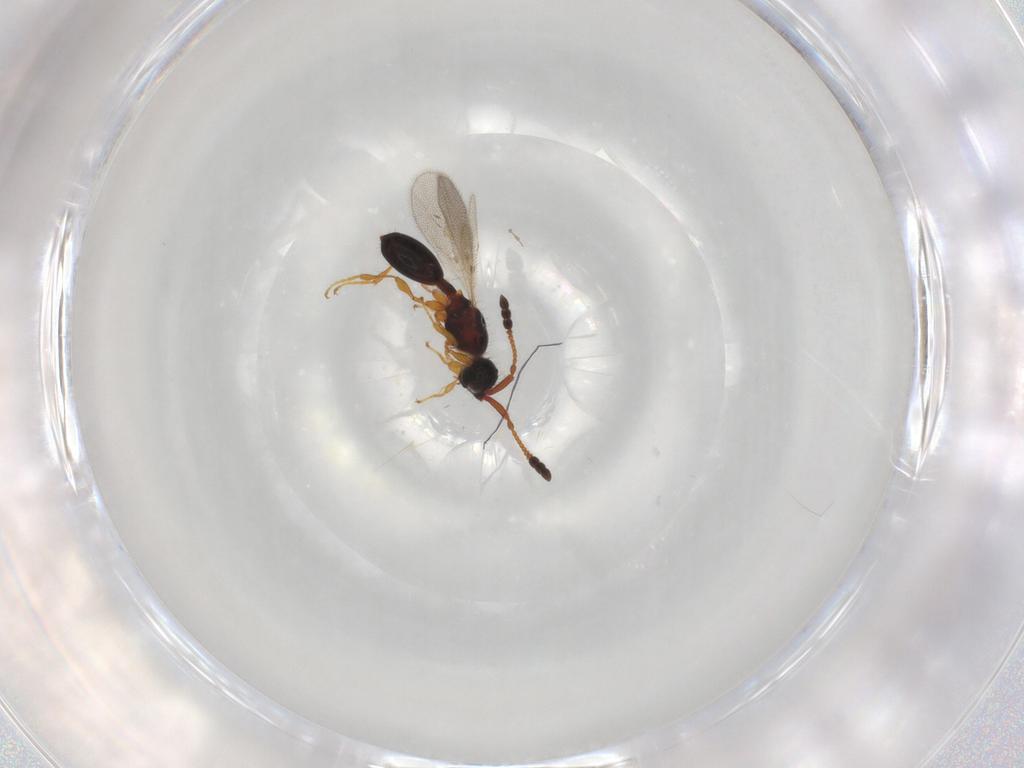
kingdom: Animalia
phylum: Arthropoda
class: Insecta
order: Hymenoptera
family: Diapriidae
